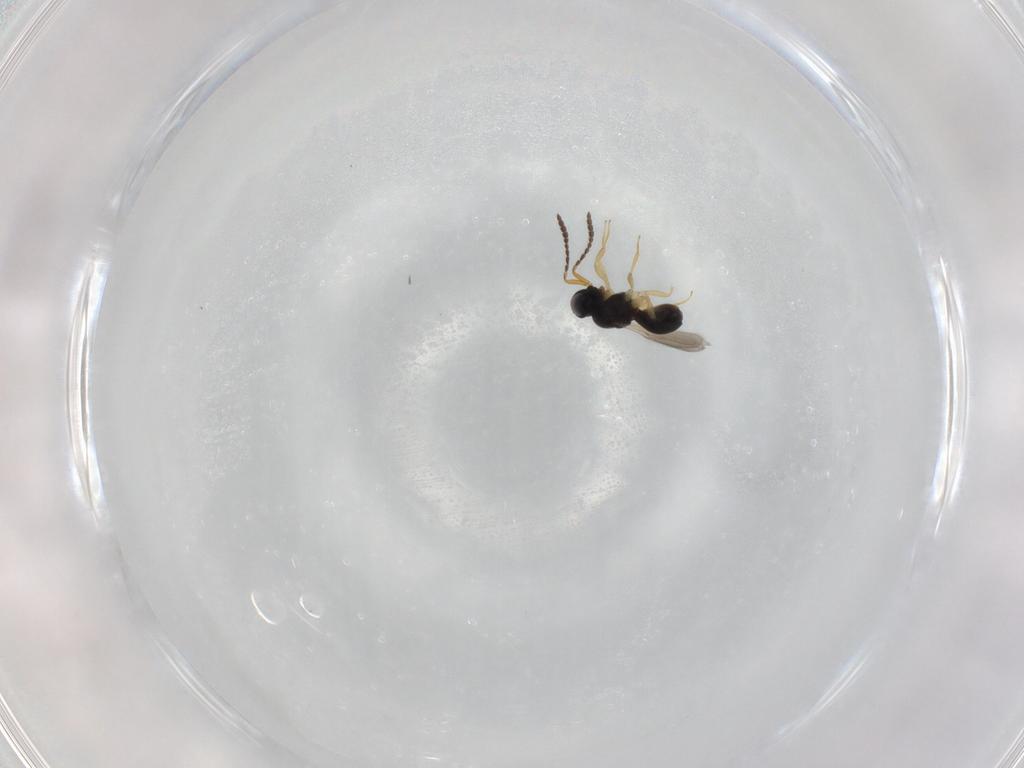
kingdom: Animalia
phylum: Arthropoda
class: Insecta
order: Hymenoptera
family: Scelionidae
